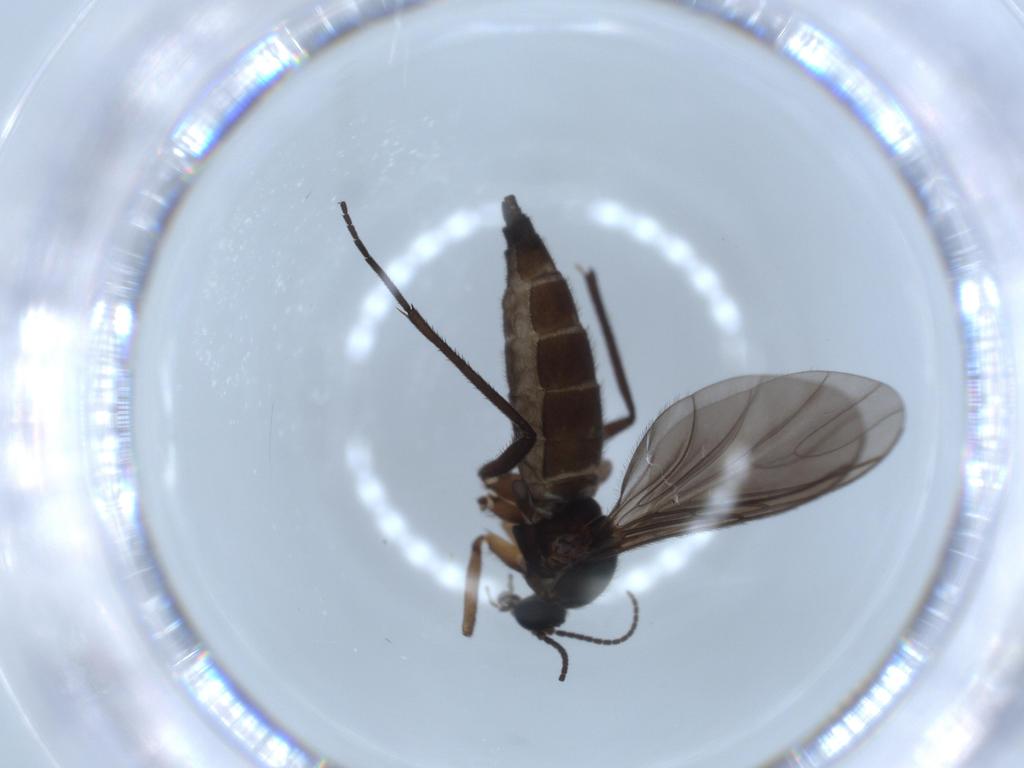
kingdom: Animalia
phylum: Arthropoda
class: Insecta
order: Diptera
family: Sciaridae
